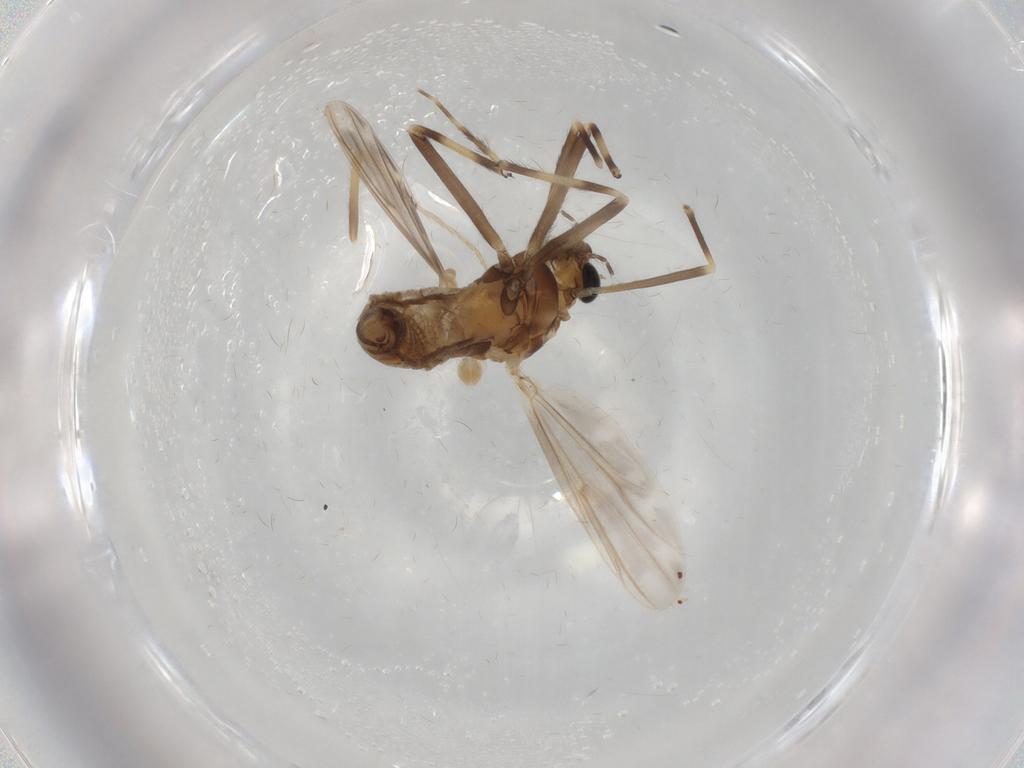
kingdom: Animalia
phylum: Arthropoda
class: Insecta
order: Diptera
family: Chironomidae
